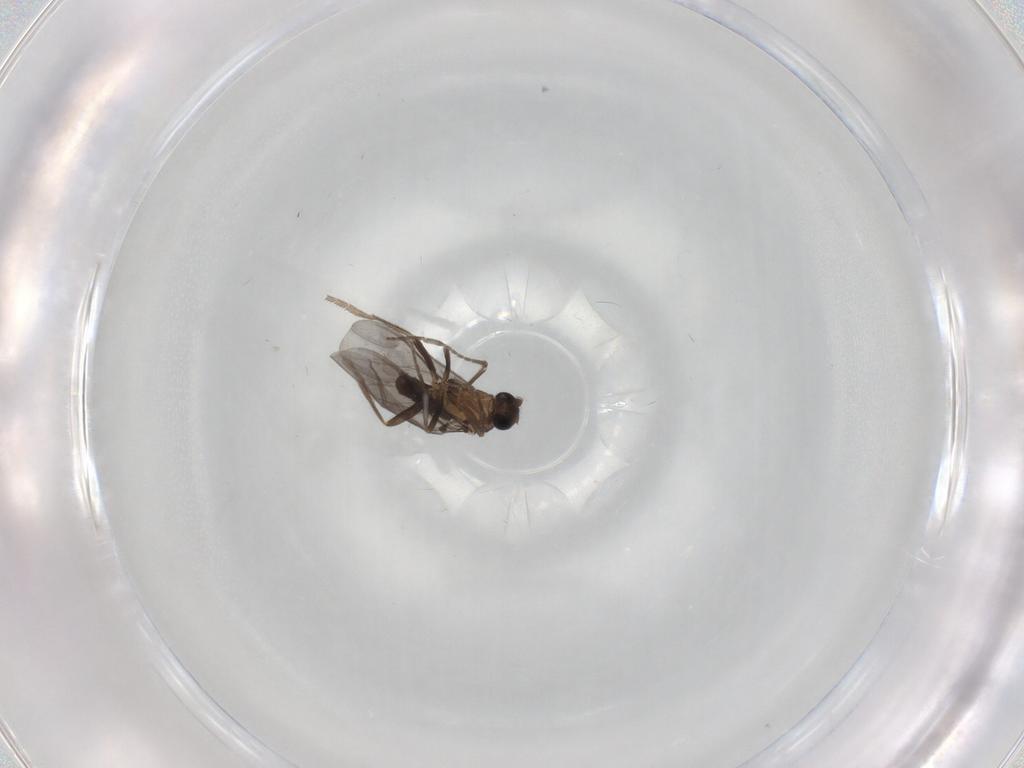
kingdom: Animalia
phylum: Arthropoda
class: Insecta
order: Diptera
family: Phoridae
